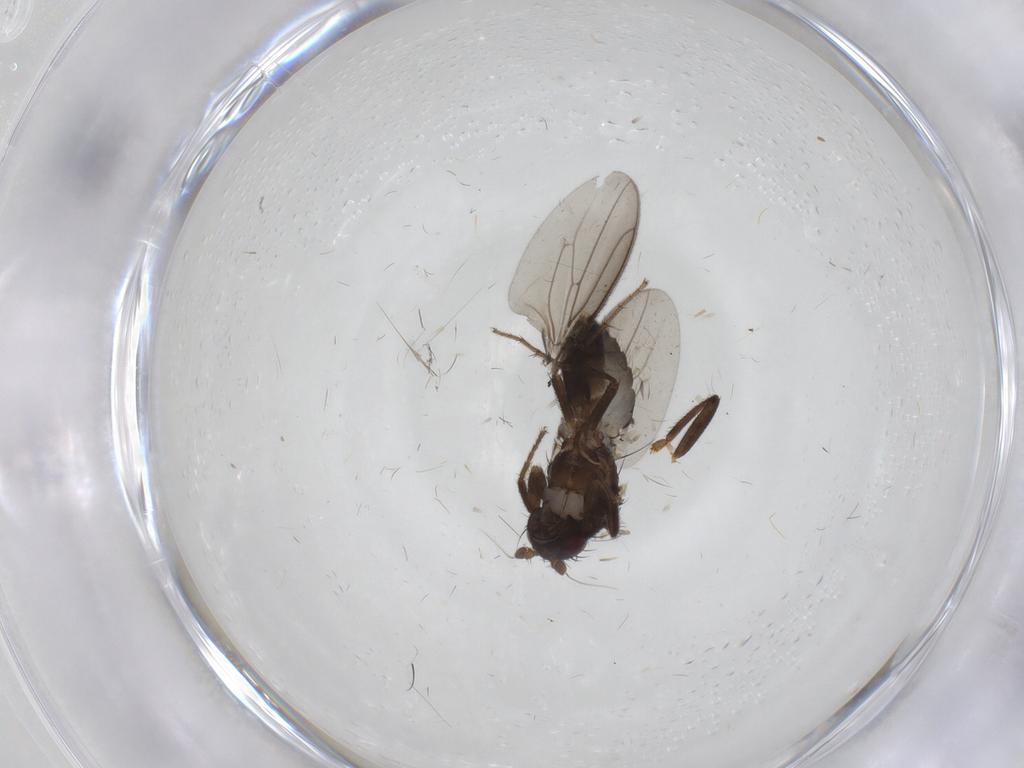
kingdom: Animalia
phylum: Arthropoda
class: Insecta
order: Diptera
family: Sphaeroceridae
